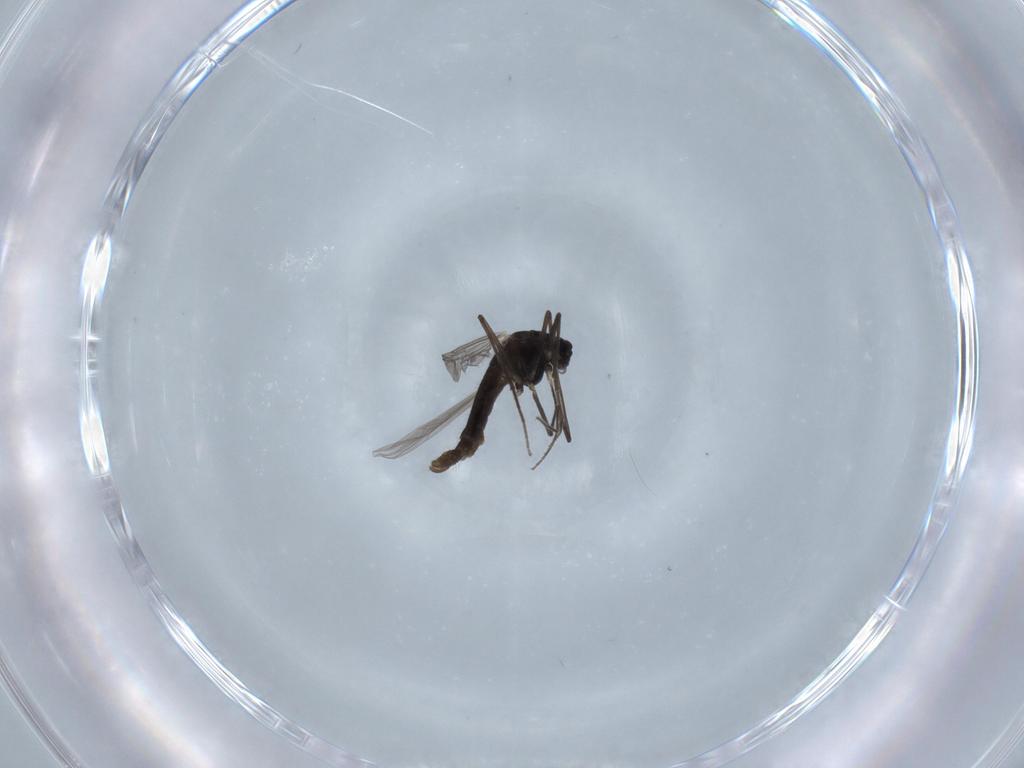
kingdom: Animalia
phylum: Arthropoda
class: Insecta
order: Diptera
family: Chironomidae
